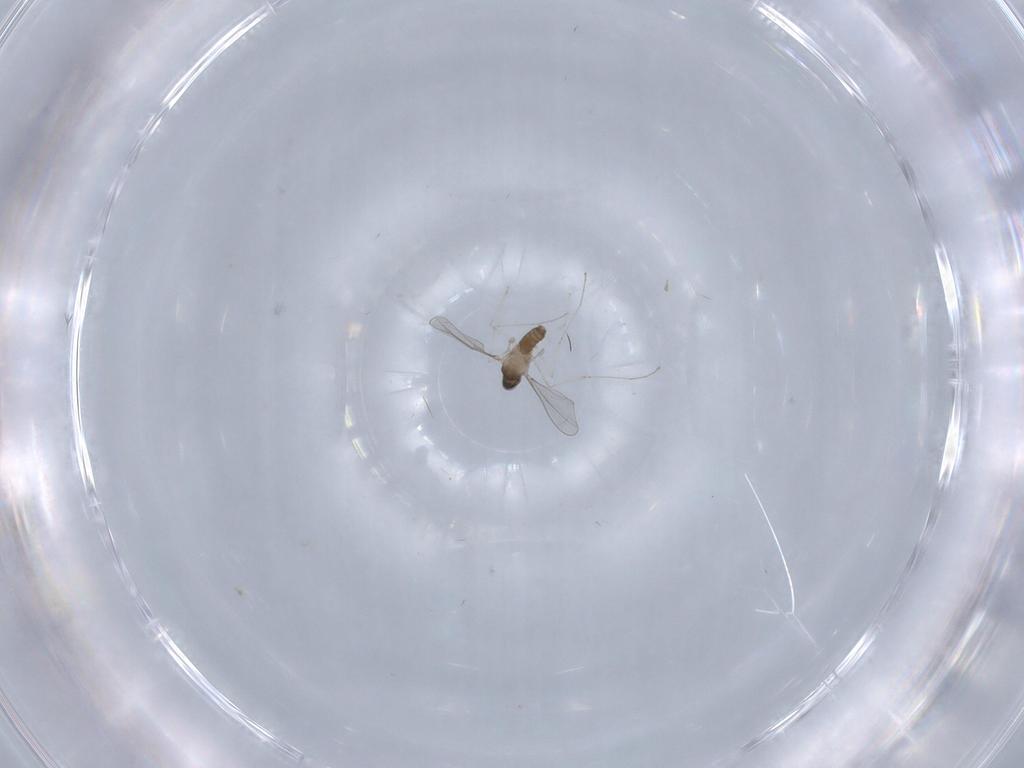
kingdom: Animalia
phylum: Arthropoda
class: Insecta
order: Diptera
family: Cecidomyiidae
